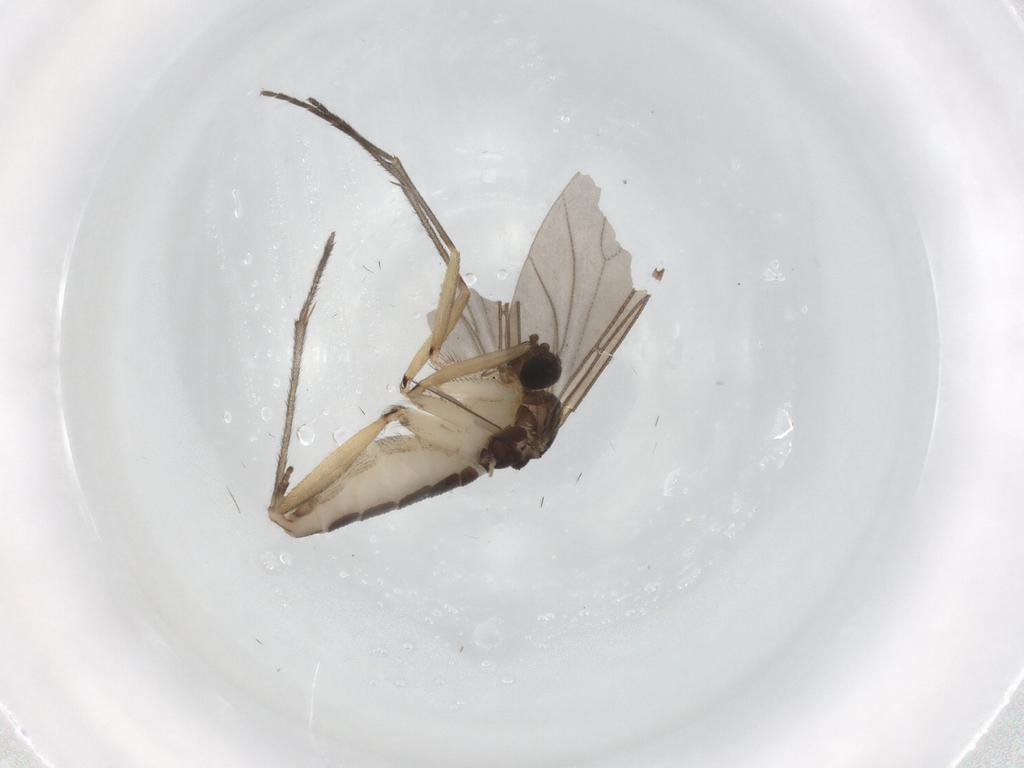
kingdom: Animalia
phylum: Arthropoda
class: Insecta
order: Diptera
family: Sciaridae
